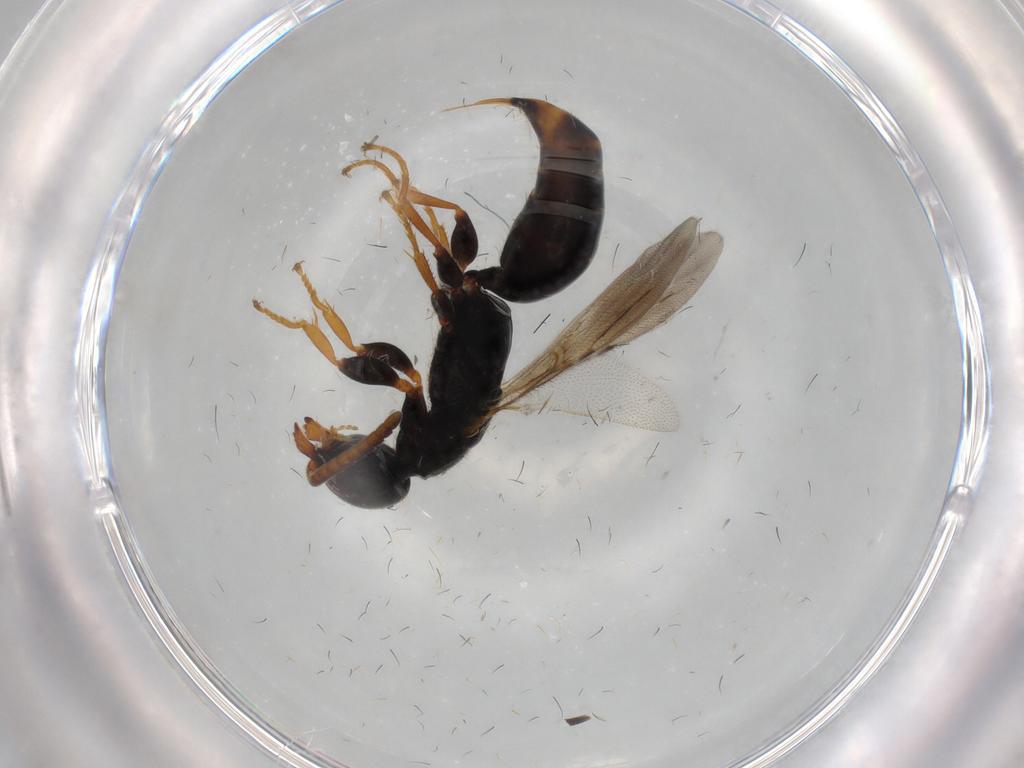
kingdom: Animalia
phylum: Arthropoda
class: Insecta
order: Hymenoptera
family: Bethylidae
